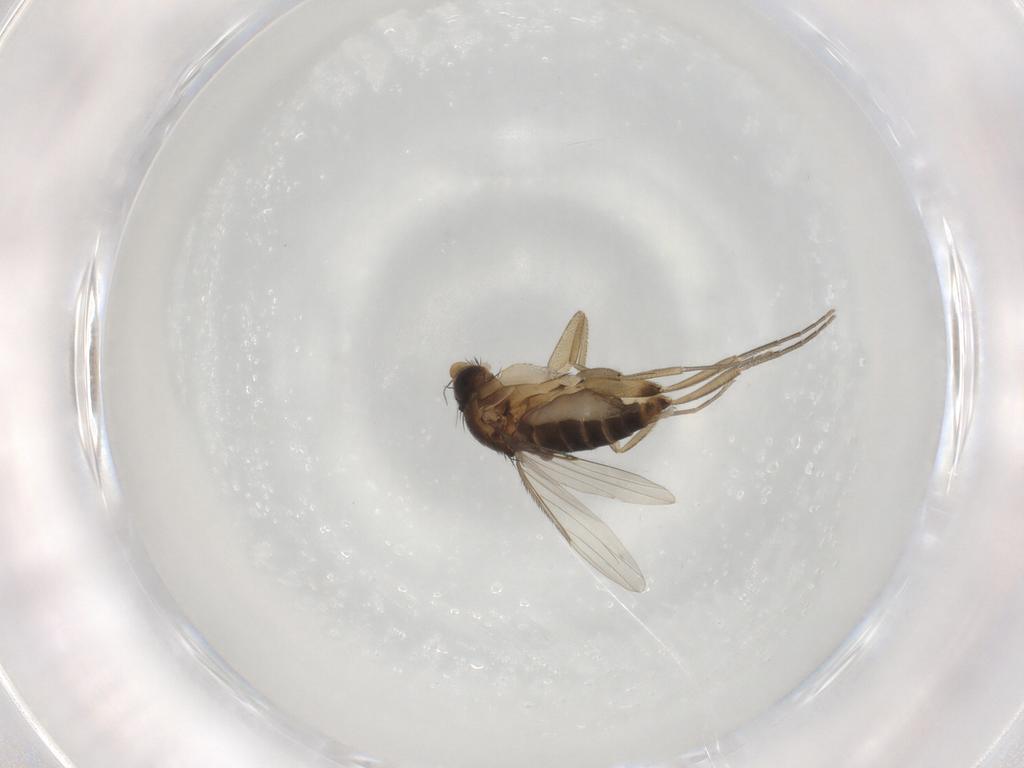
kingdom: Animalia
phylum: Arthropoda
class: Insecta
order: Diptera
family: Phoridae
